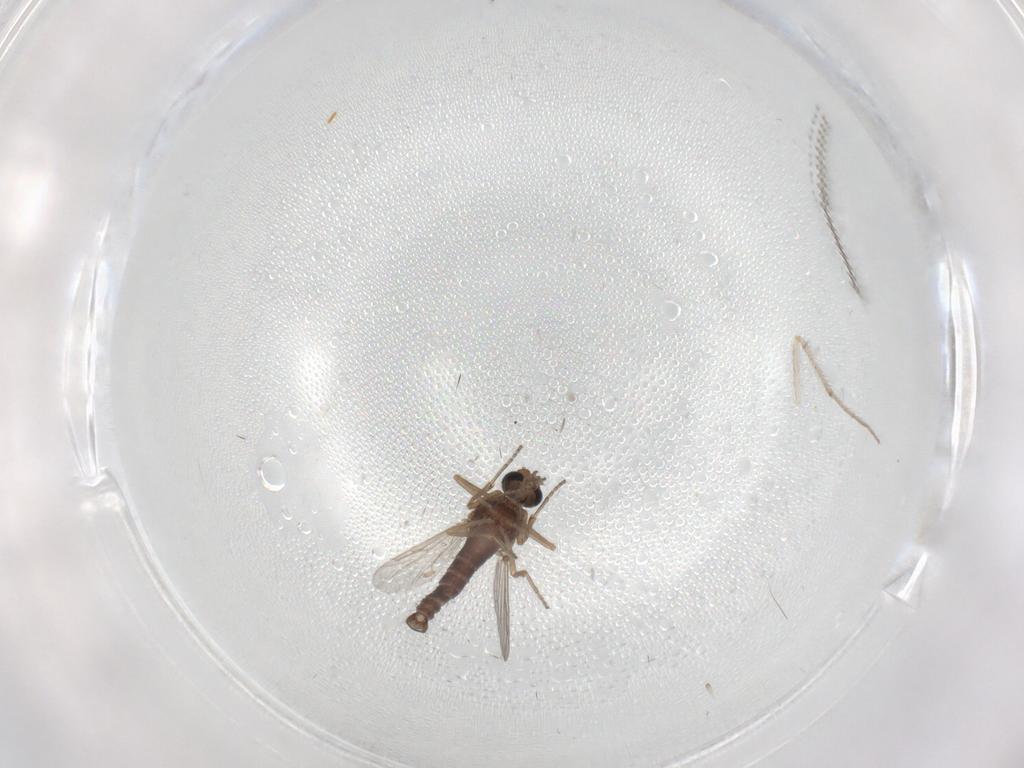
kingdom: Animalia
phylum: Arthropoda
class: Insecta
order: Diptera
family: Ceratopogonidae
